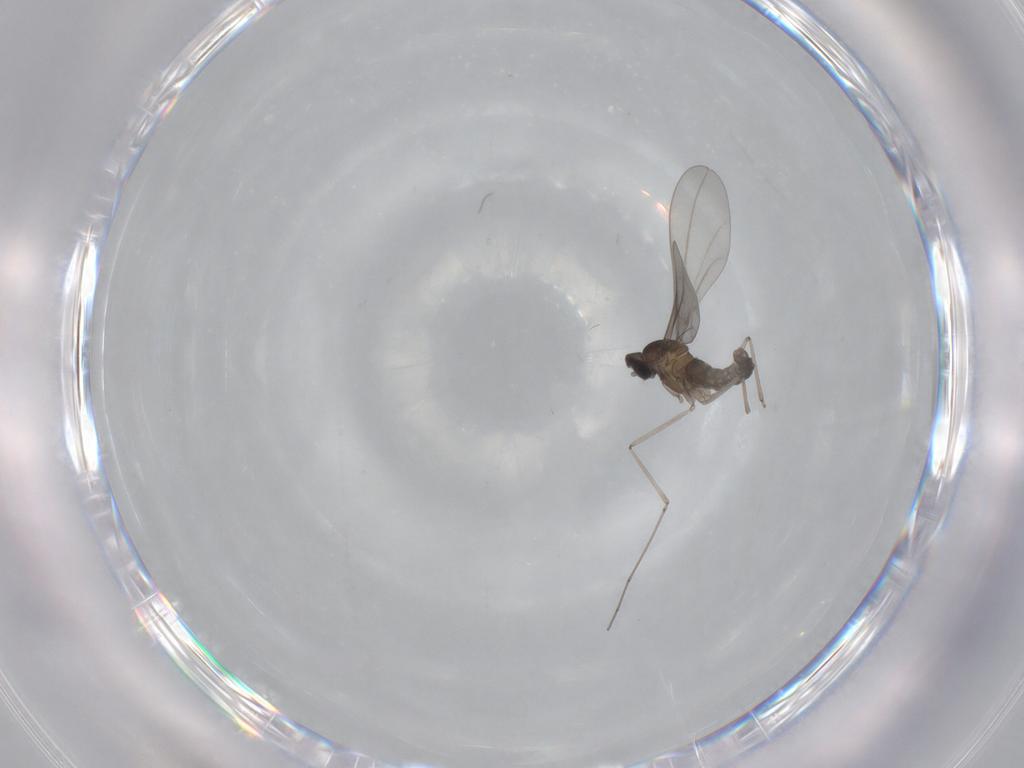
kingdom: Animalia
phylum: Arthropoda
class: Insecta
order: Diptera
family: Cecidomyiidae
